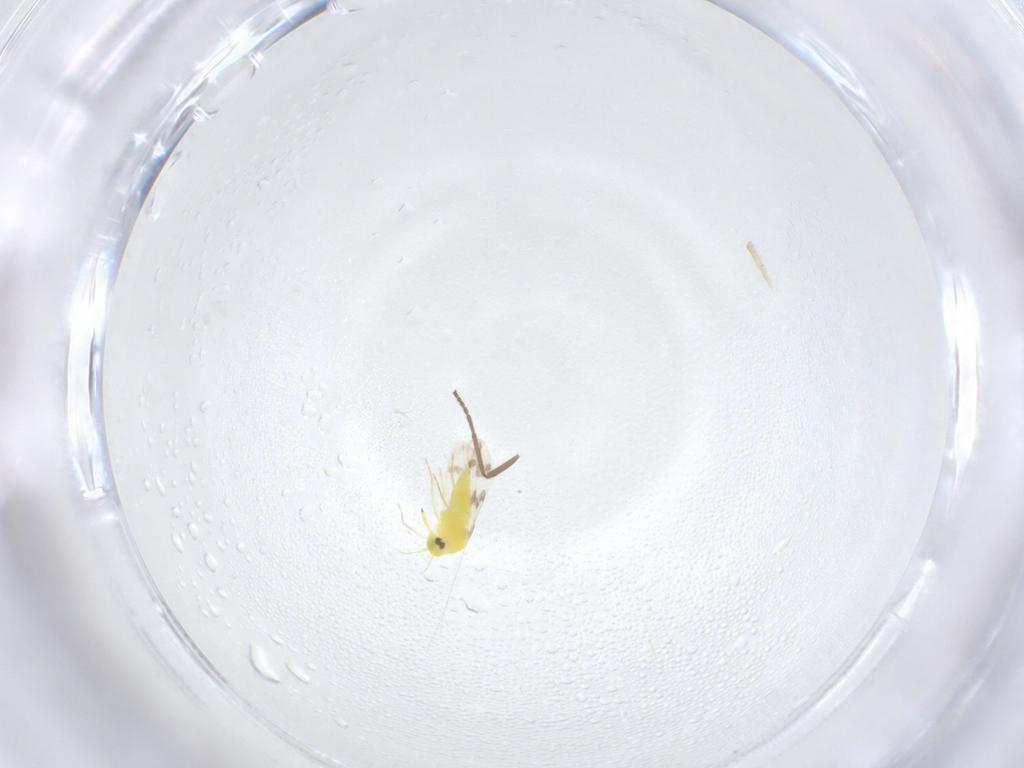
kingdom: Animalia
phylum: Arthropoda
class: Insecta
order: Hemiptera
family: Aleyrodidae
